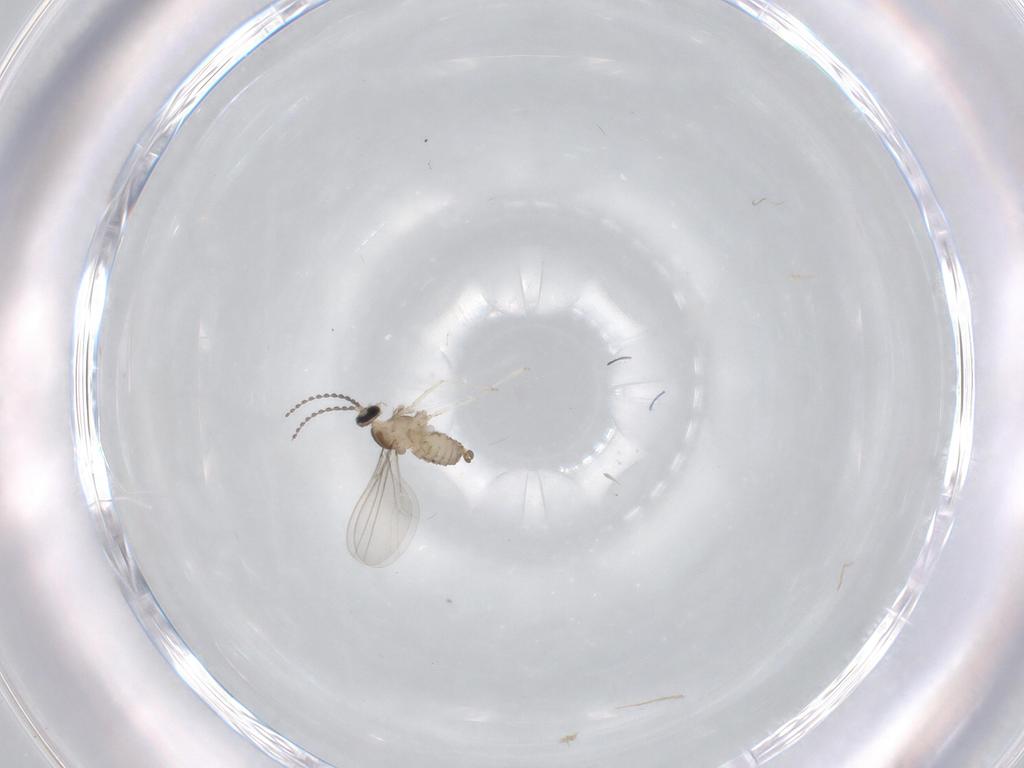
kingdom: Animalia
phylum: Arthropoda
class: Insecta
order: Diptera
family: Cecidomyiidae
